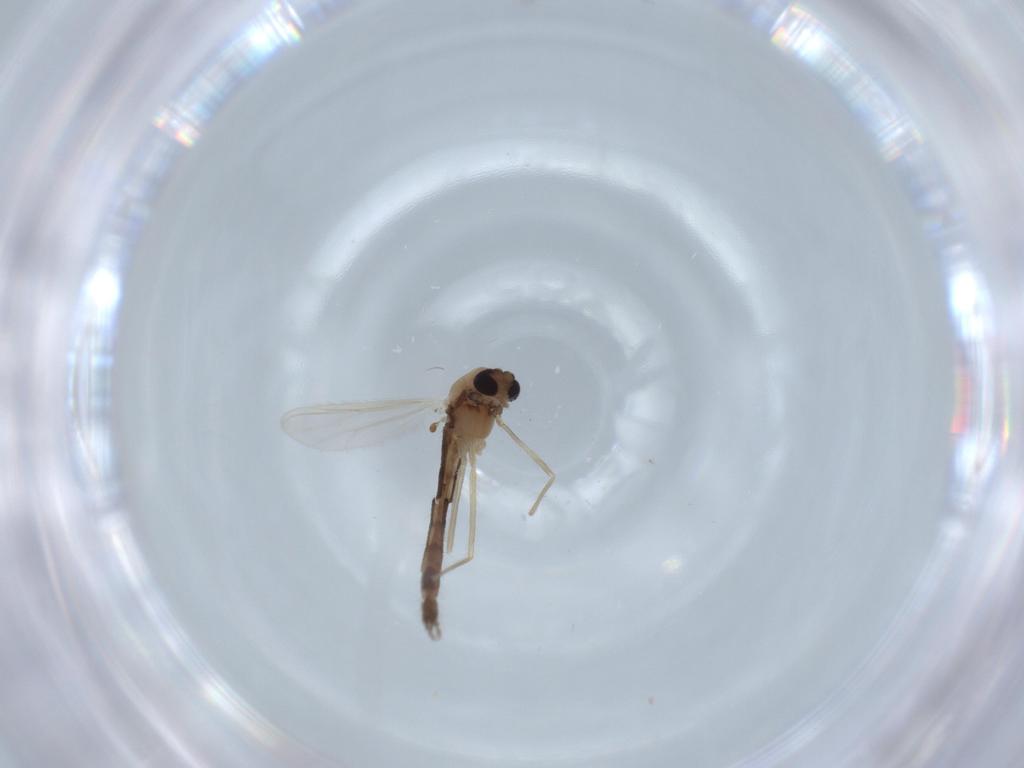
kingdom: Animalia
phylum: Arthropoda
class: Insecta
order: Diptera
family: Chironomidae
